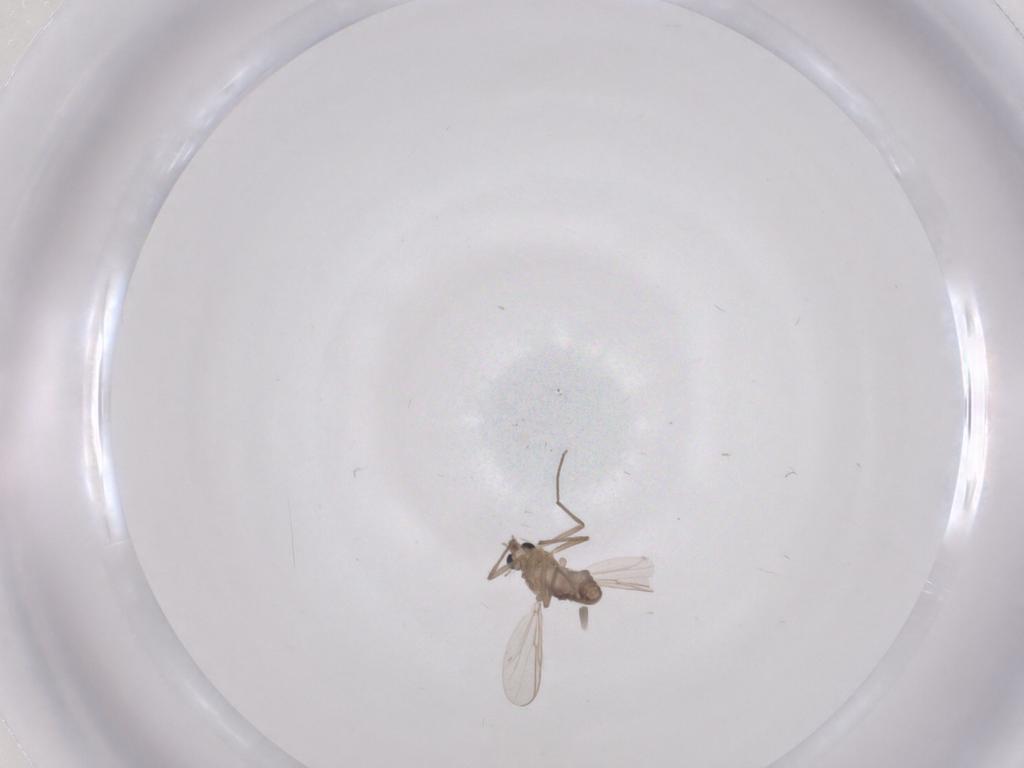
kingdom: Animalia
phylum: Arthropoda
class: Insecta
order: Diptera
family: Chironomidae
